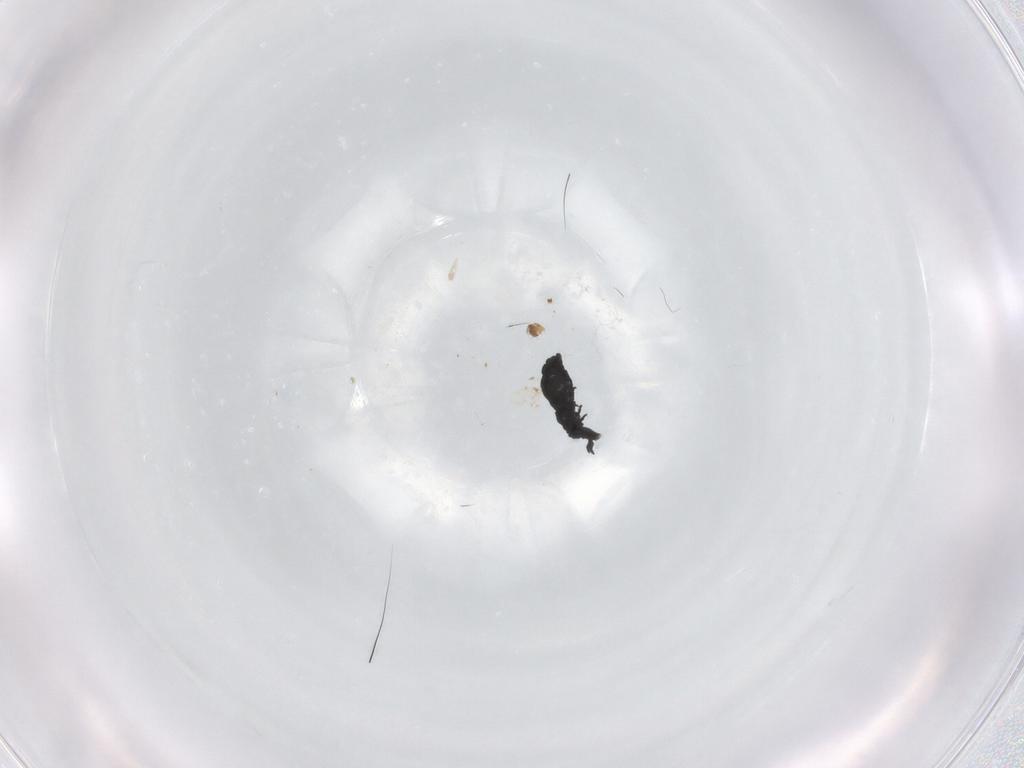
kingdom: Animalia
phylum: Arthropoda
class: Collembola
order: Poduromorpha
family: Hypogastruridae
